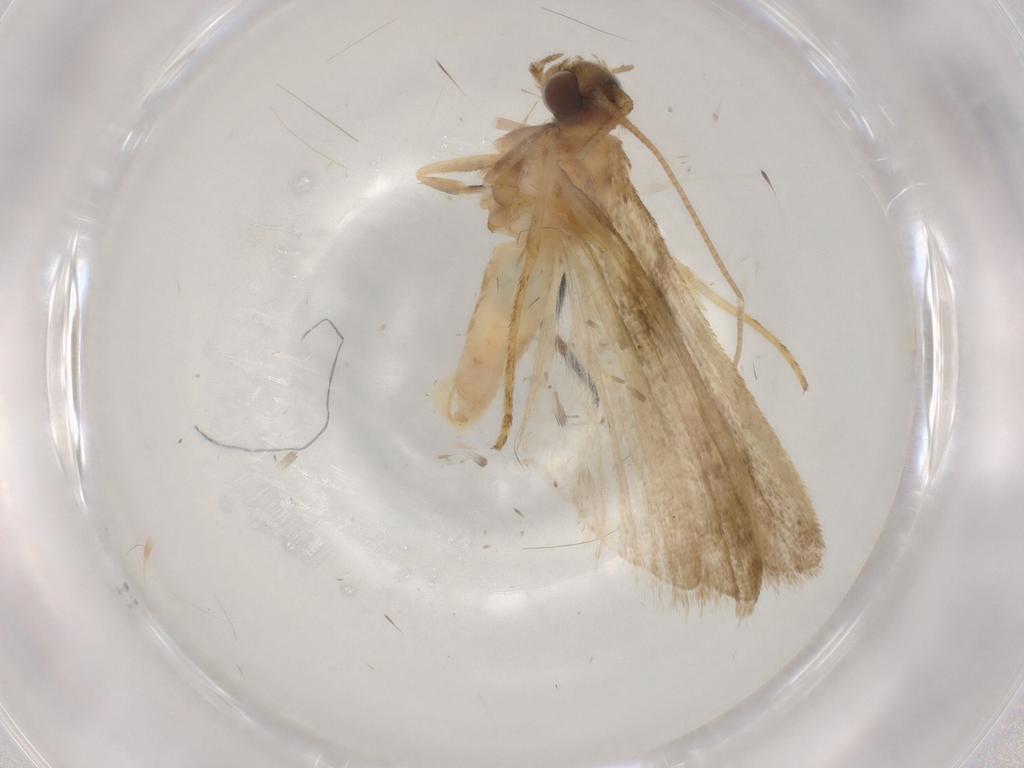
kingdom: Animalia
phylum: Arthropoda
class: Insecta
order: Lepidoptera
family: Noctuidae
